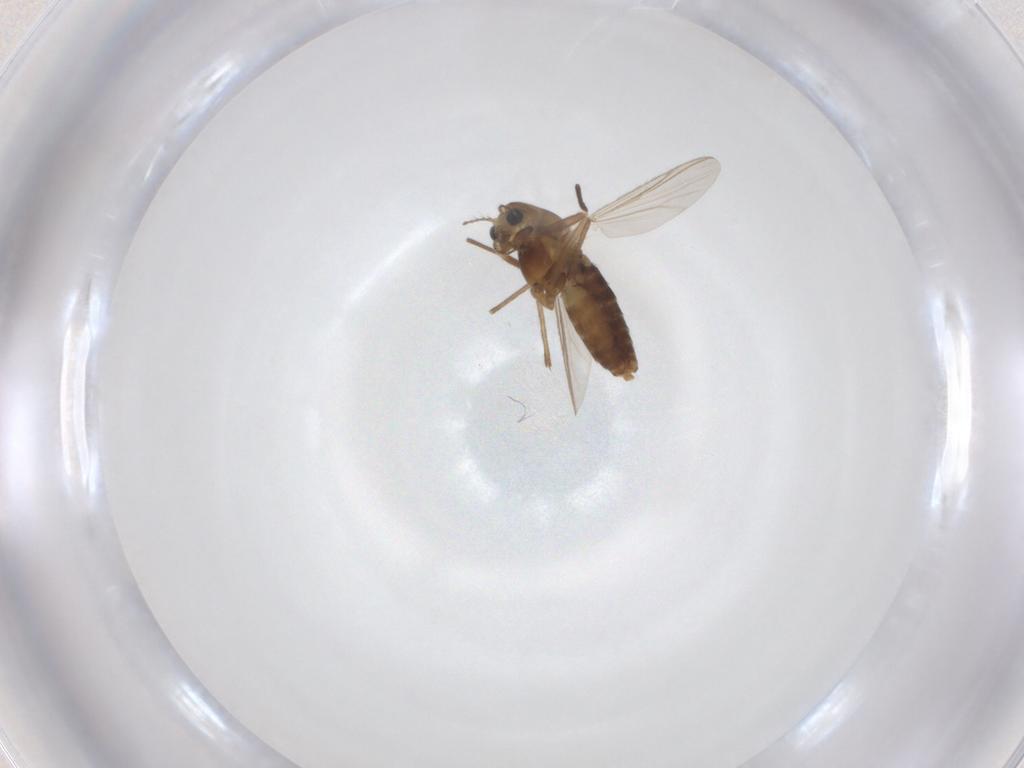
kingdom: Animalia
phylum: Arthropoda
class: Insecta
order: Diptera
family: Chironomidae
